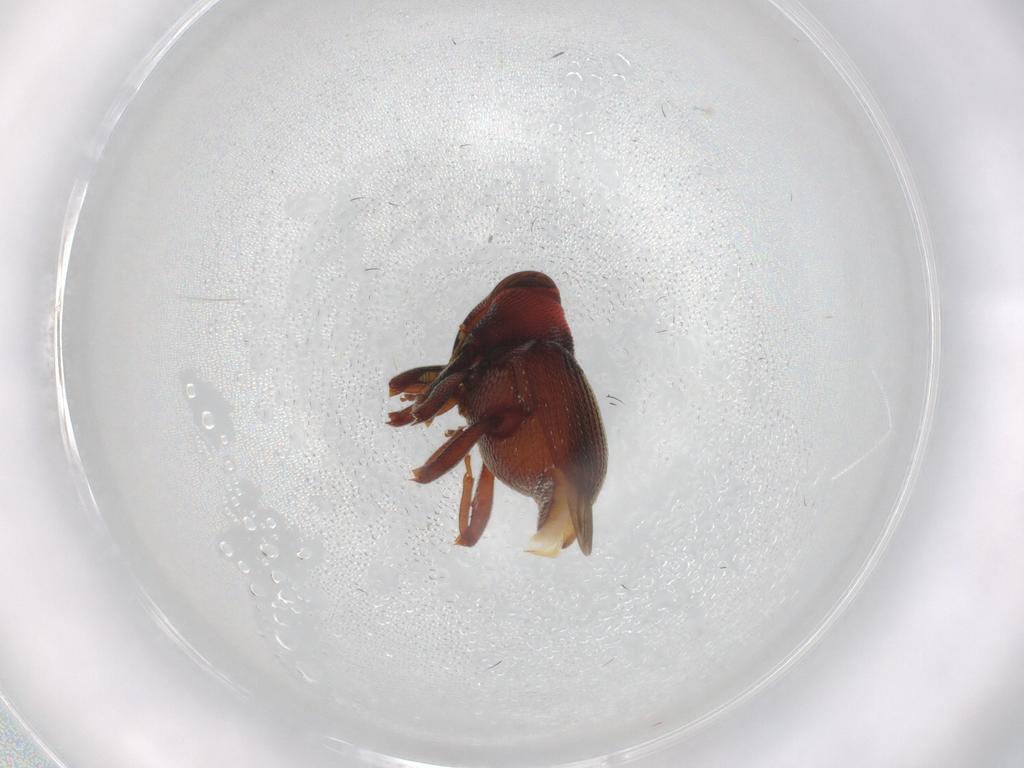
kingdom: Animalia
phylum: Arthropoda
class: Insecta
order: Coleoptera
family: Curculionidae
